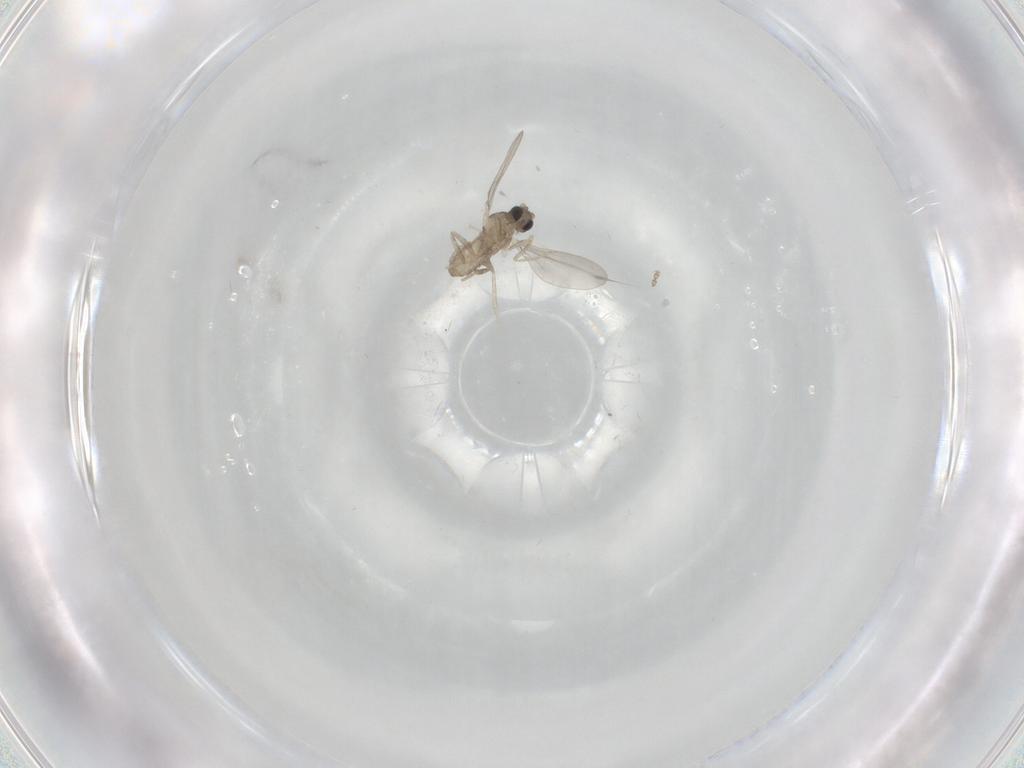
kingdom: Animalia
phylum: Arthropoda
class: Insecta
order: Diptera
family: Cecidomyiidae
